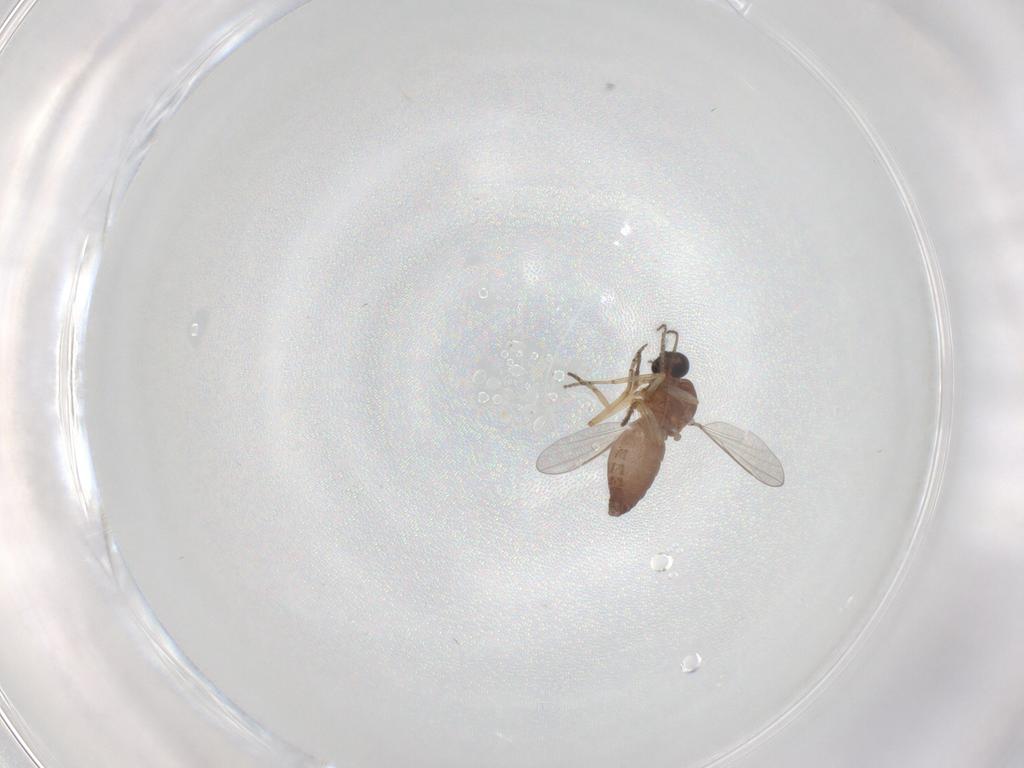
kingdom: Animalia
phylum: Arthropoda
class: Insecta
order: Diptera
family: Ceratopogonidae
